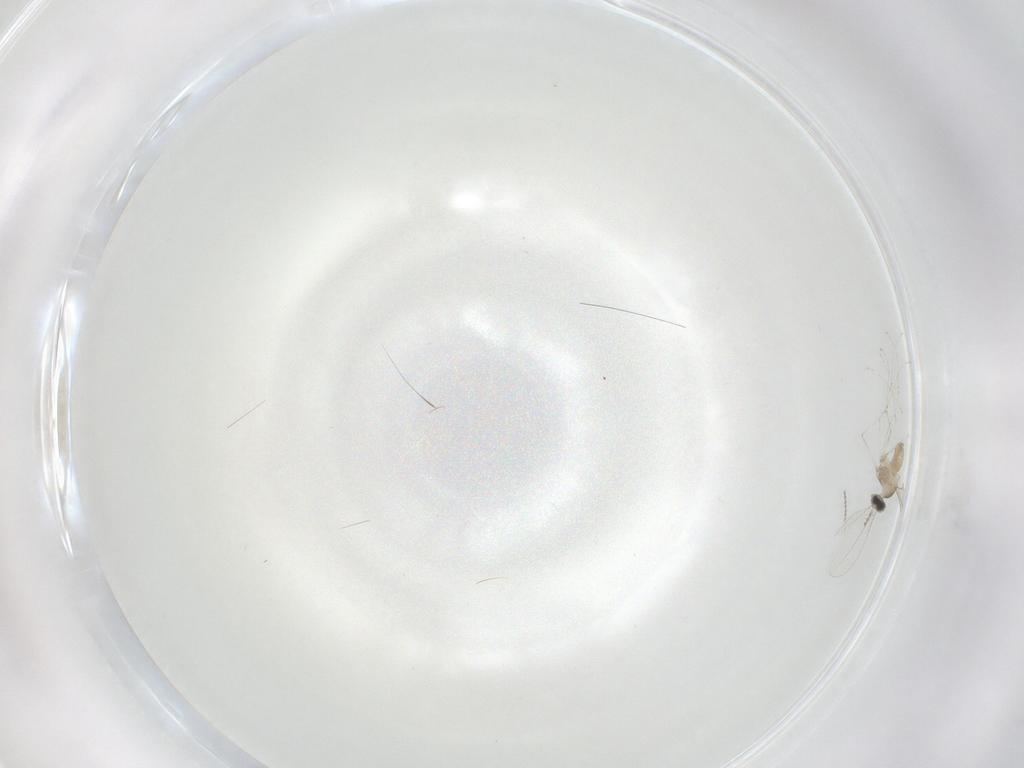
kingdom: Animalia
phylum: Arthropoda
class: Insecta
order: Diptera
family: Cecidomyiidae
